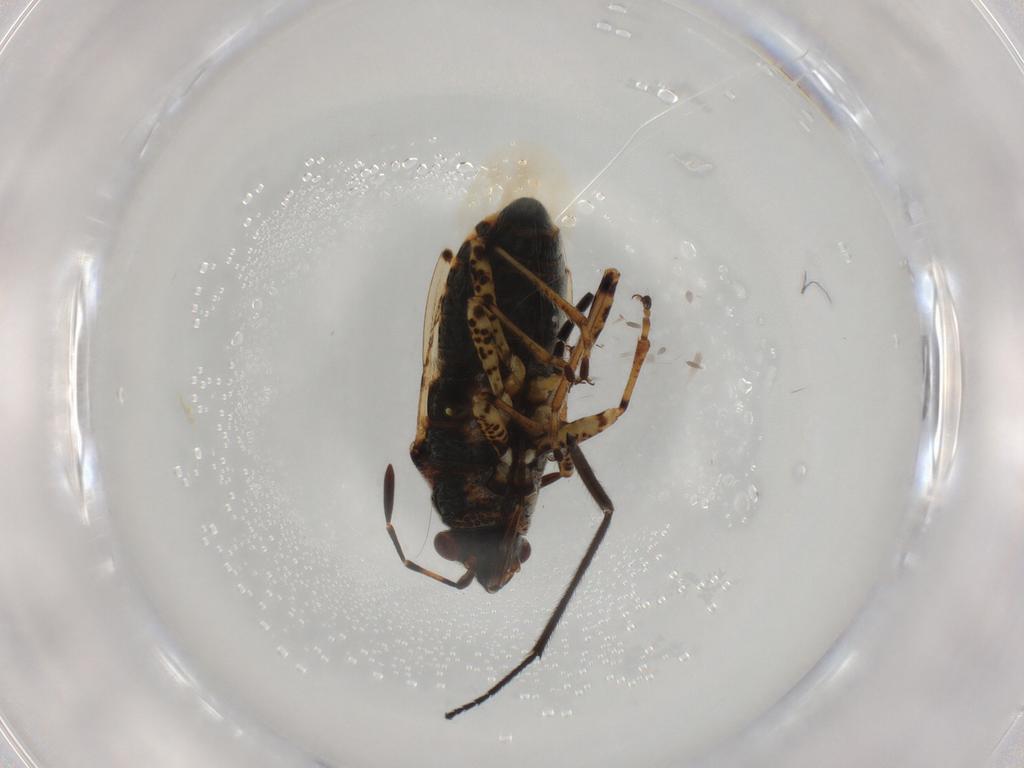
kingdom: Animalia
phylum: Arthropoda
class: Insecta
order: Hemiptera
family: Lygaeidae
